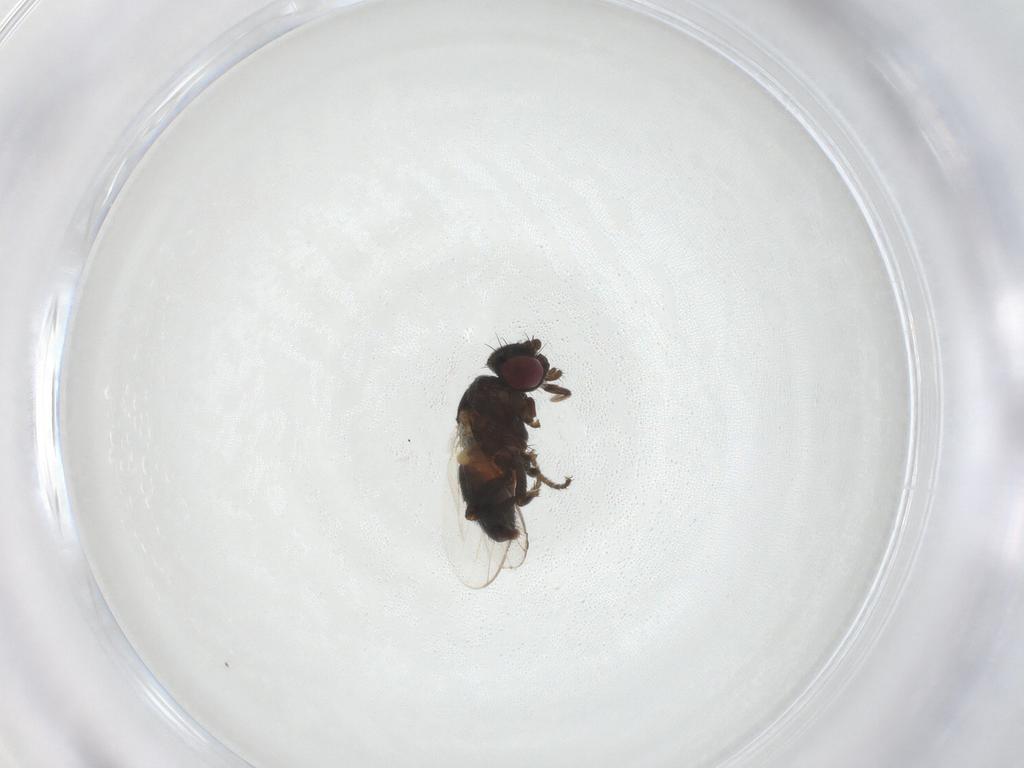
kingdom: Animalia
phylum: Arthropoda
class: Insecta
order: Diptera
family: Milichiidae
